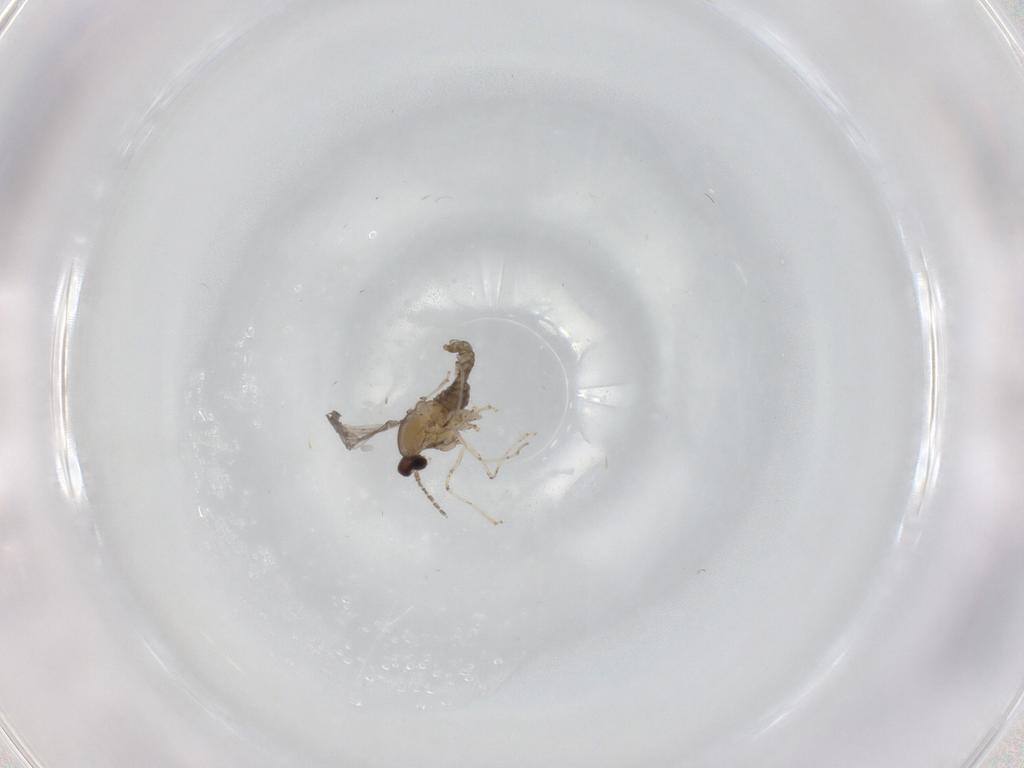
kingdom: Animalia
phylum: Arthropoda
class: Insecta
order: Diptera
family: Cecidomyiidae
